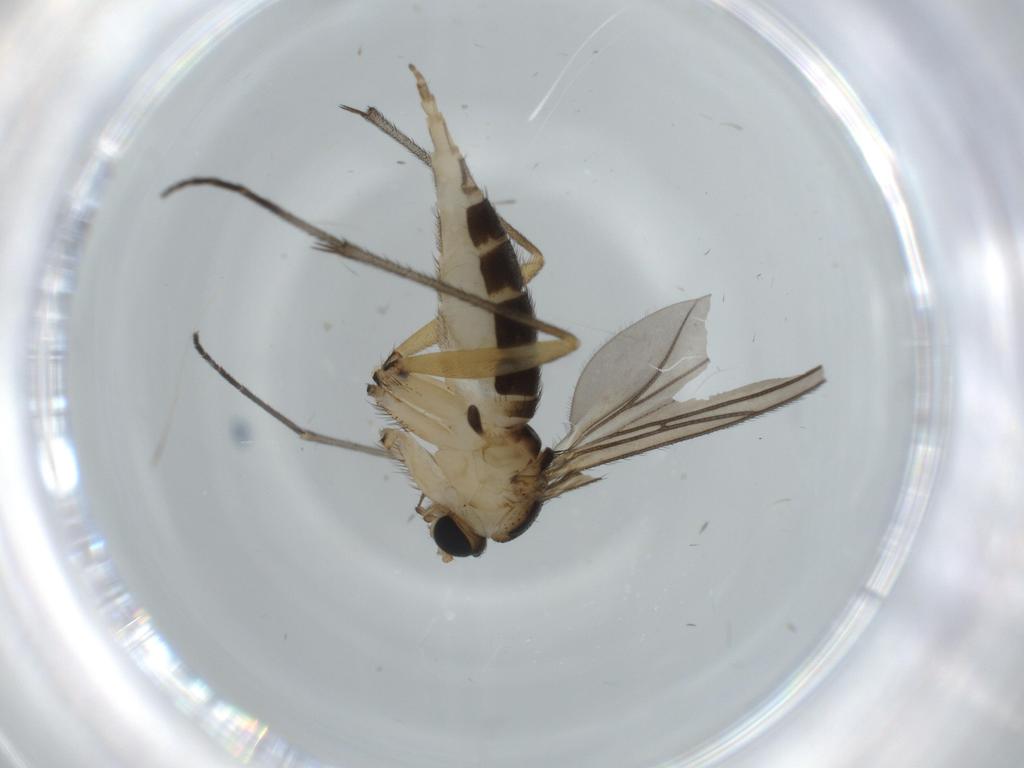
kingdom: Animalia
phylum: Arthropoda
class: Insecta
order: Diptera
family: Sciaridae
